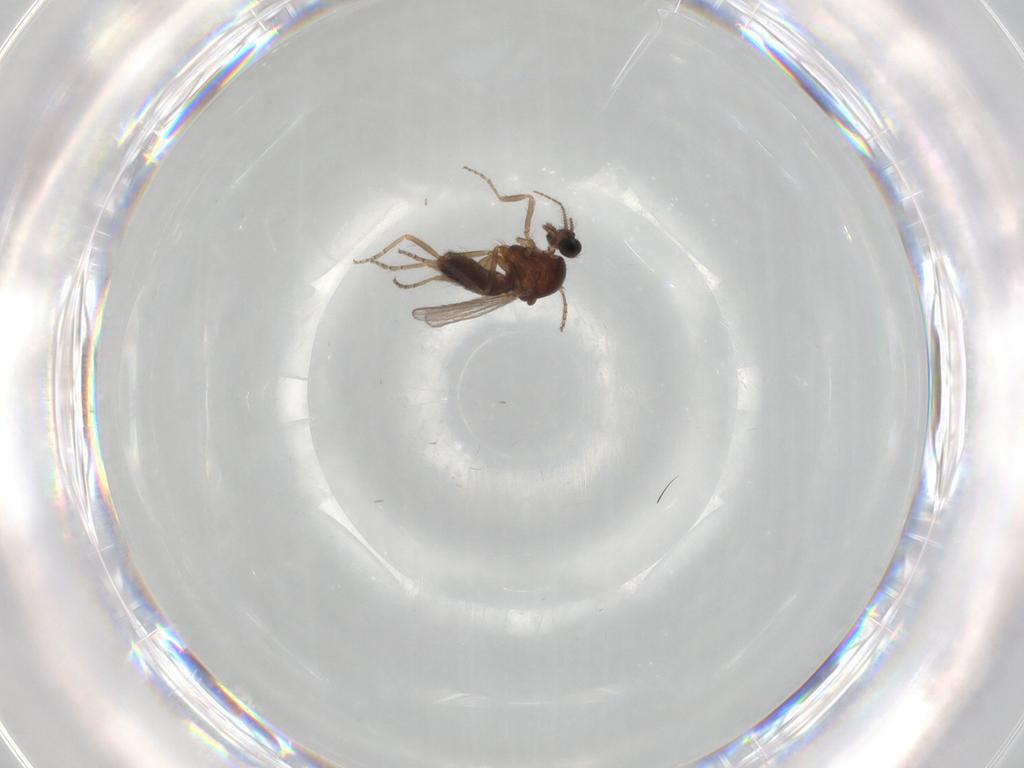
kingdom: Animalia
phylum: Arthropoda
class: Insecta
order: Diptera
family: Ceratopogonidae
